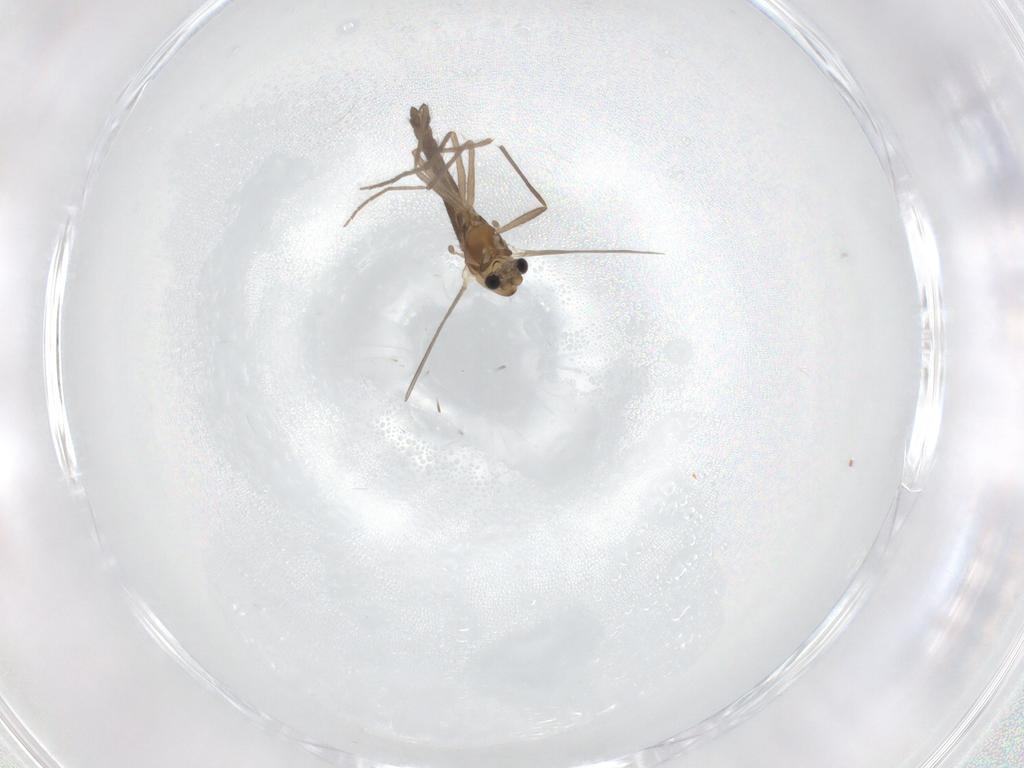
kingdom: Animalia
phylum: Arthropoda
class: Insecta
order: Diptera
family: Chironomidae
